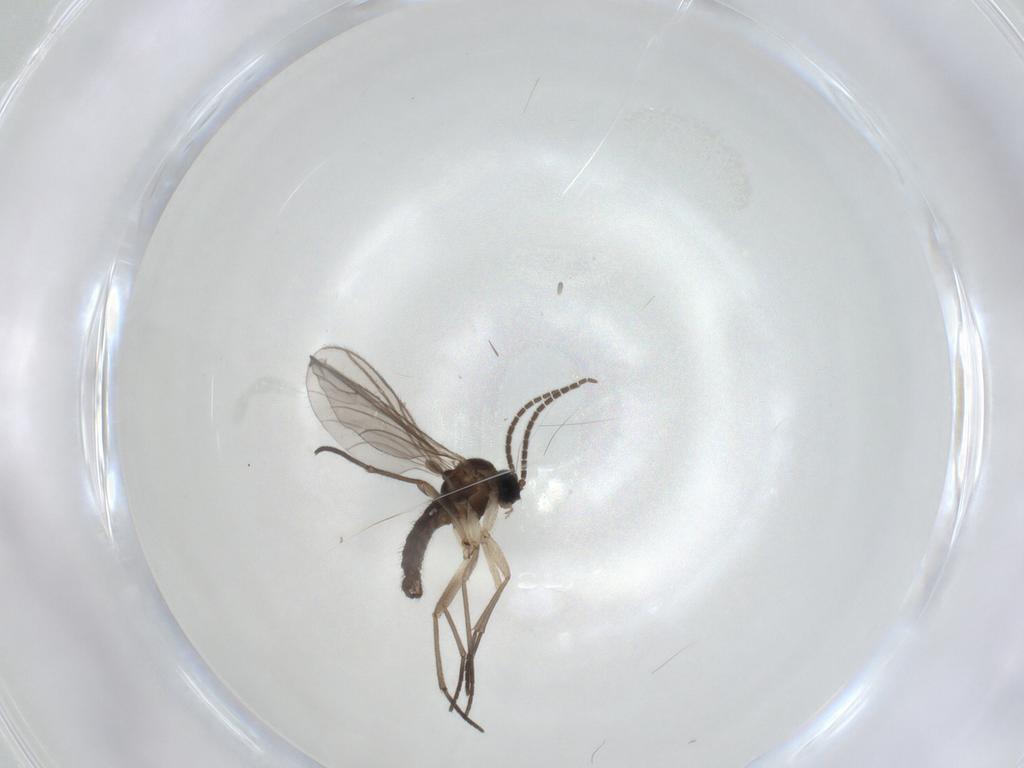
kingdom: Animalia
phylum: Arthropoda
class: Insecta
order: Diptera
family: Sciaridae
